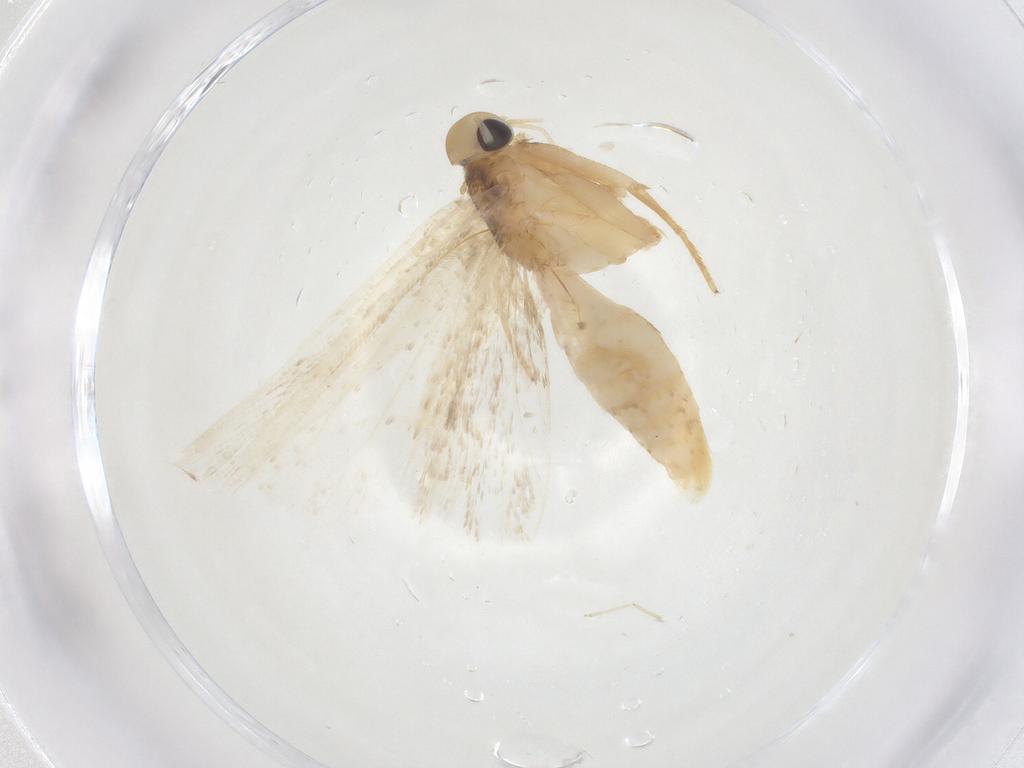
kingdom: Animalia
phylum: Arthropoda
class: Insecta
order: Lepidoptera
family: Gelechiidae
